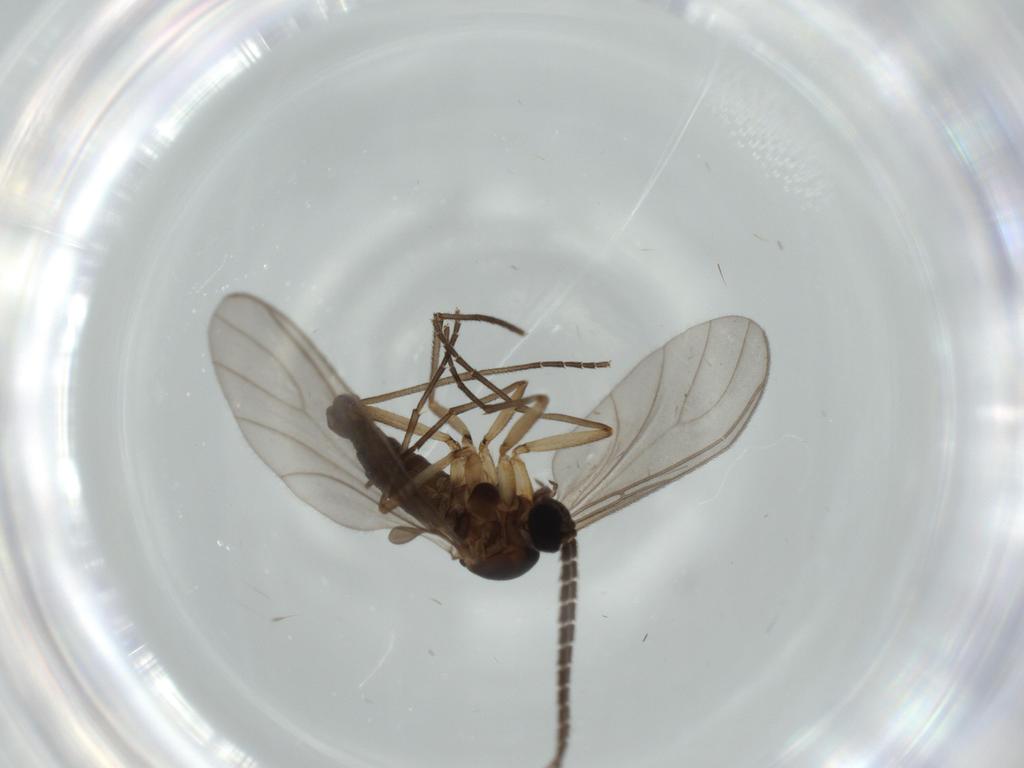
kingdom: Animalia
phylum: Arthropoda
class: Insecta
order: Diptera
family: Sciaridae
